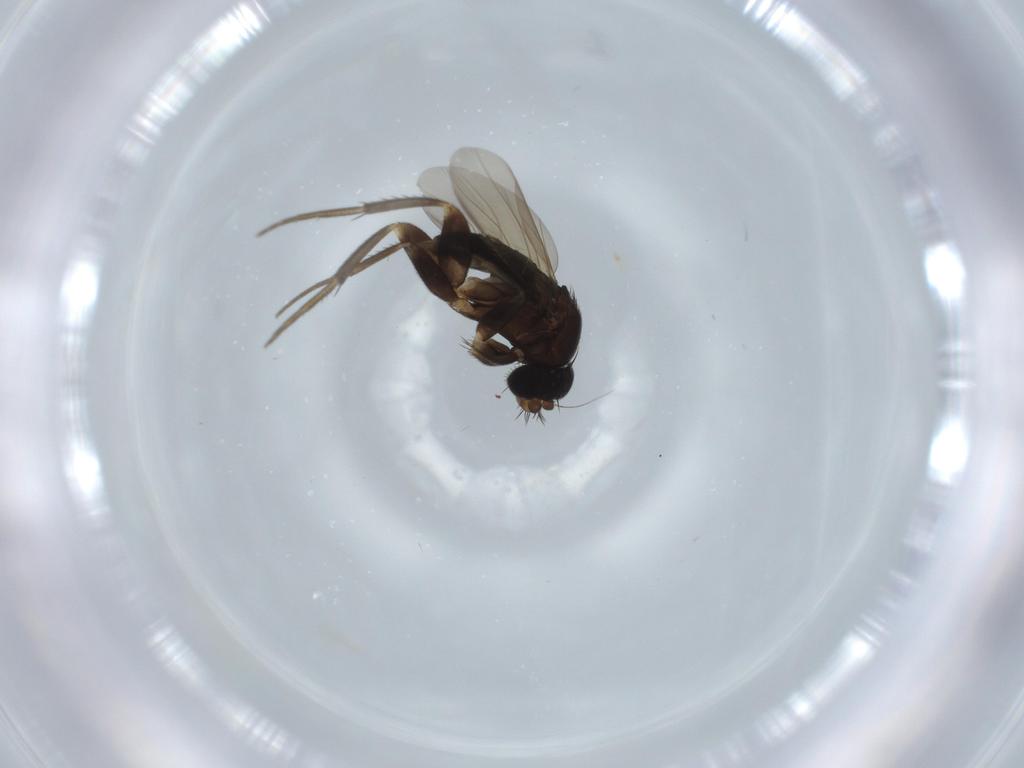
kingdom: Animalia
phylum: Arthropoda
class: Insecta
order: Diptera
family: Phoridae
